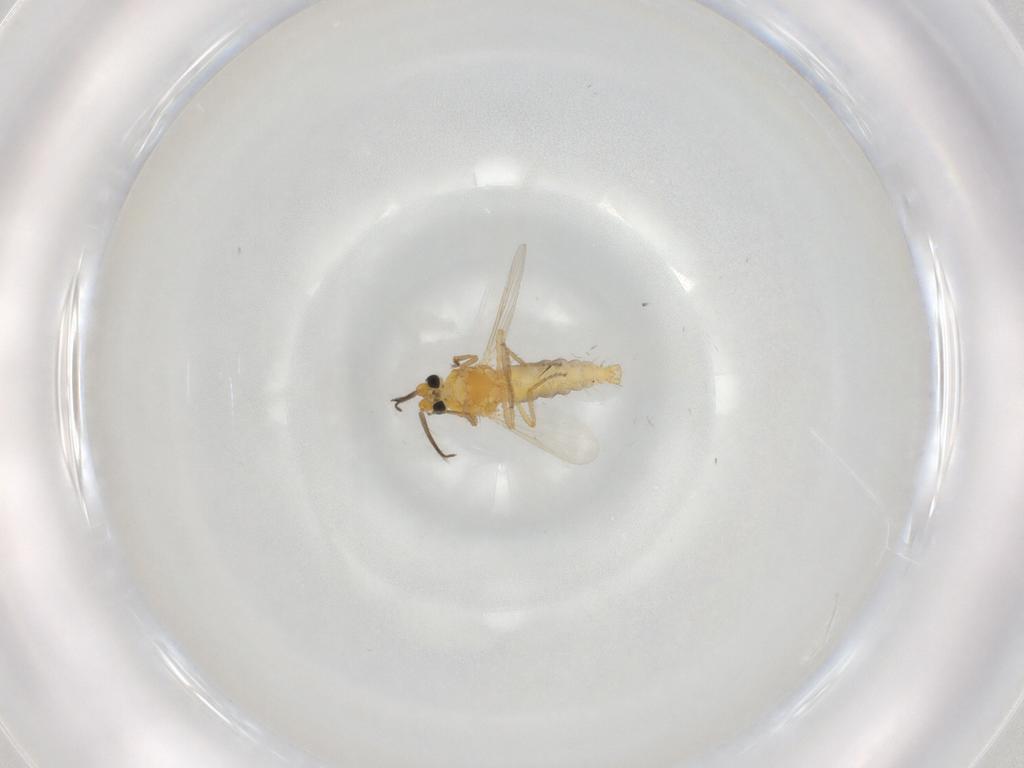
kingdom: Animalia
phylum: Arthropoda
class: Insecta
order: Diptera
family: Ceratopogonidae
